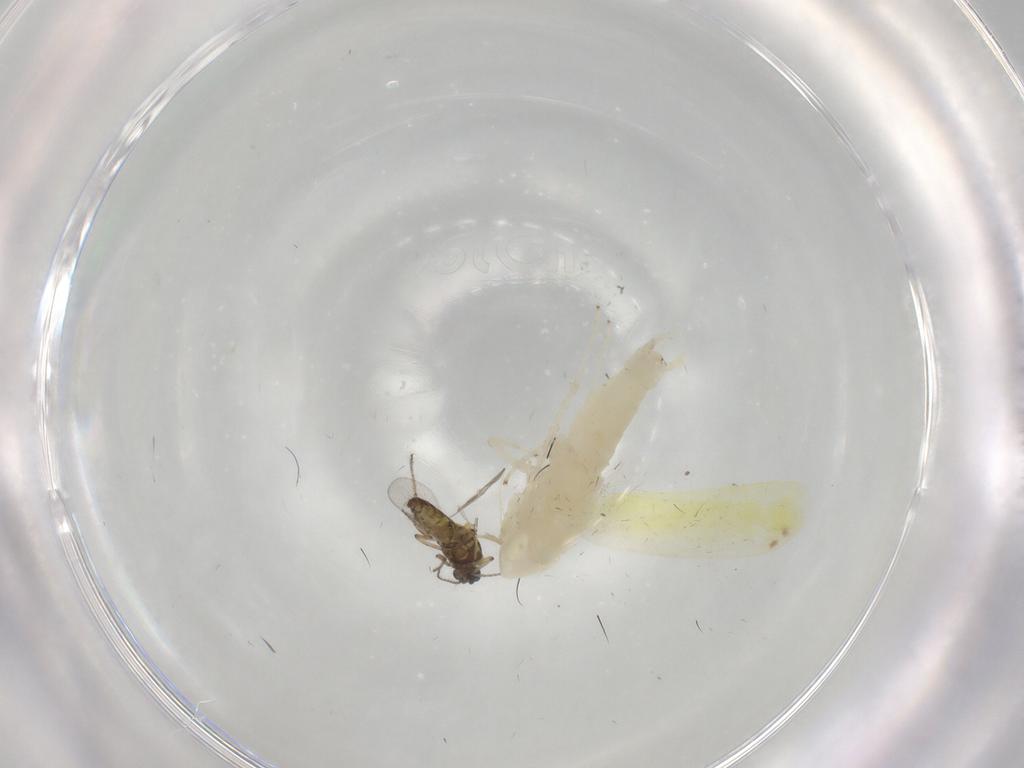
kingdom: Animalia
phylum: Arthropoda
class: Insecta
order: Hemiptera
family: Cicadellidae
